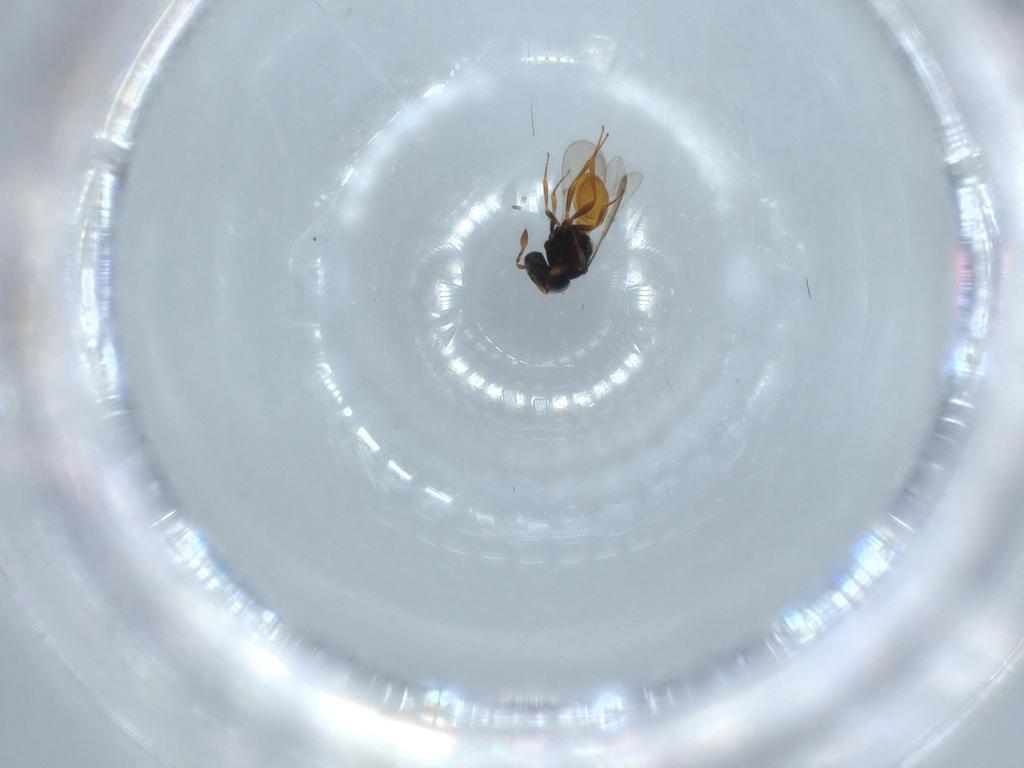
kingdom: Animalia
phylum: Arthropoda
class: Insecta
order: Hymenoptera
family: Scelionidae
